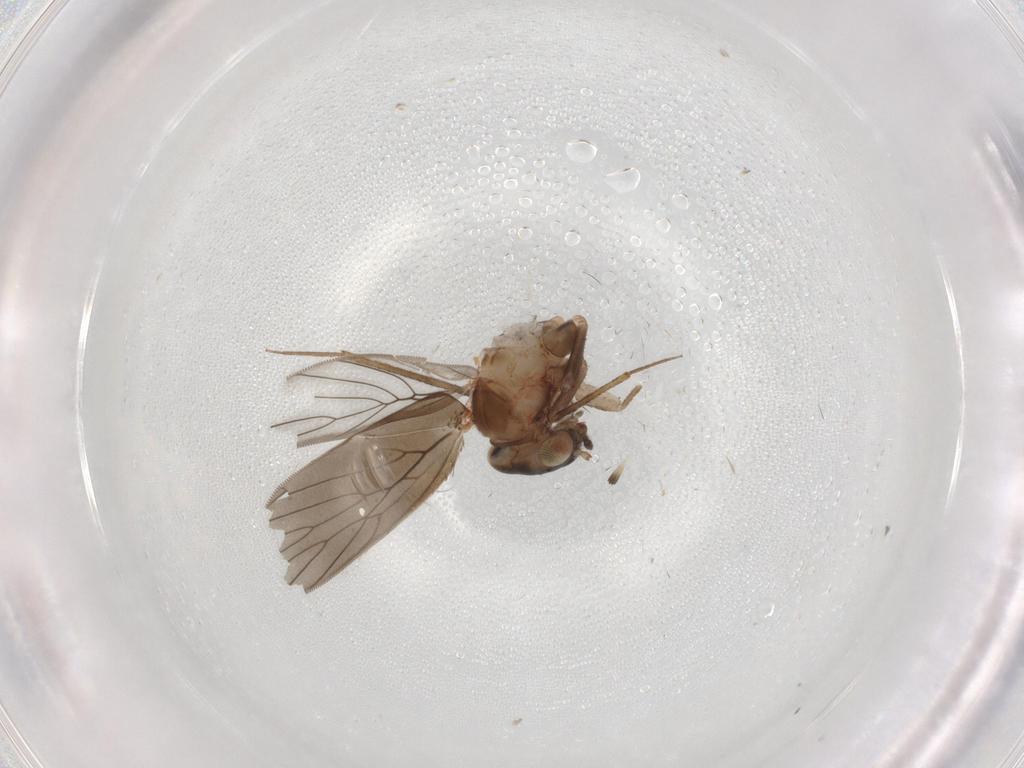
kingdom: Animalia
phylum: Arthropoda
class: Insecta
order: Psocodea
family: Lepidopsocidae
